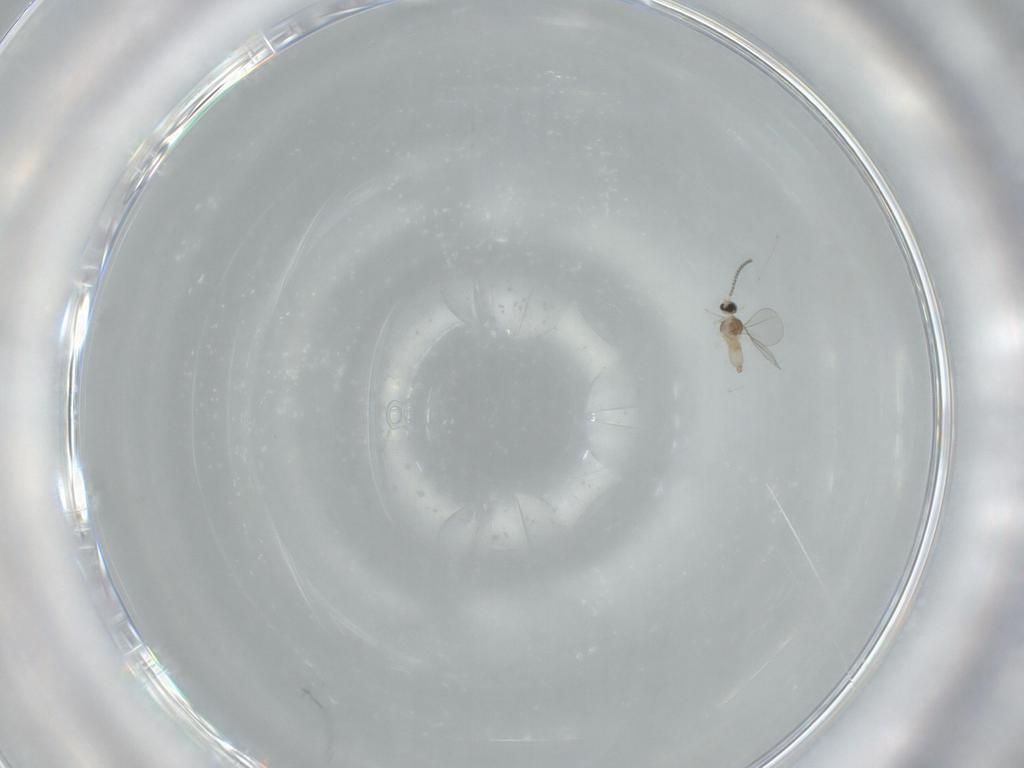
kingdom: Animalia
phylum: Arthropoda
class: Insecta
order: Diptera
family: Cecidomyiidae
